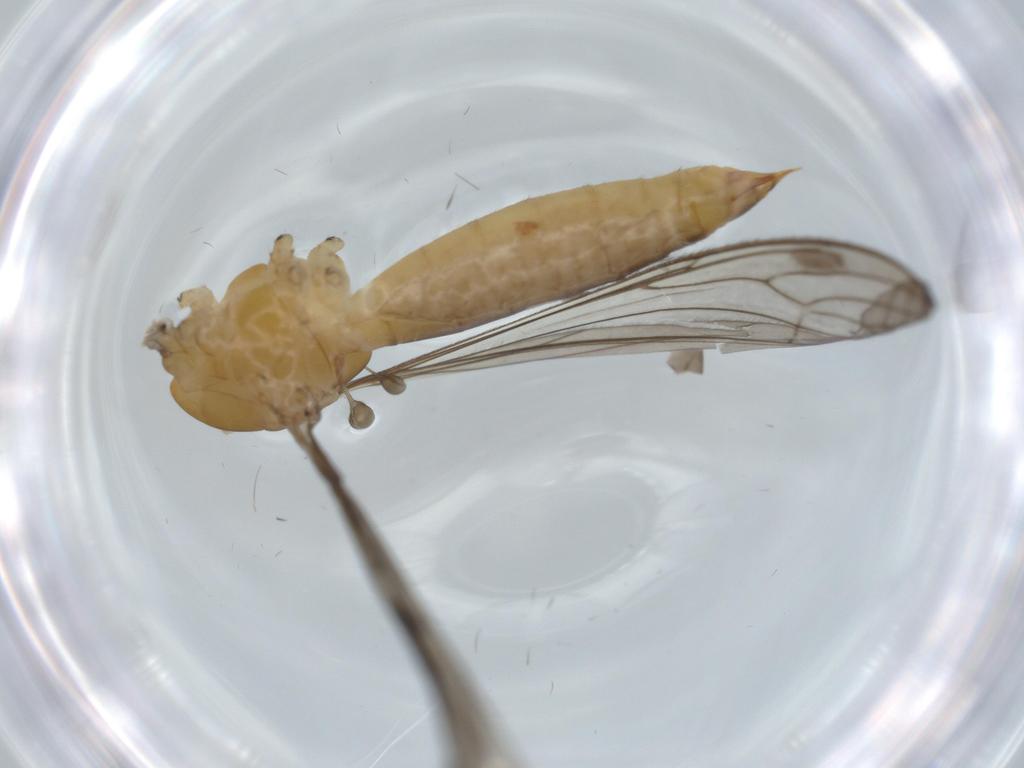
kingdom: Animalia
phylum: Arthropoda
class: Insecta
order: Diptera
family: Limoniidae
